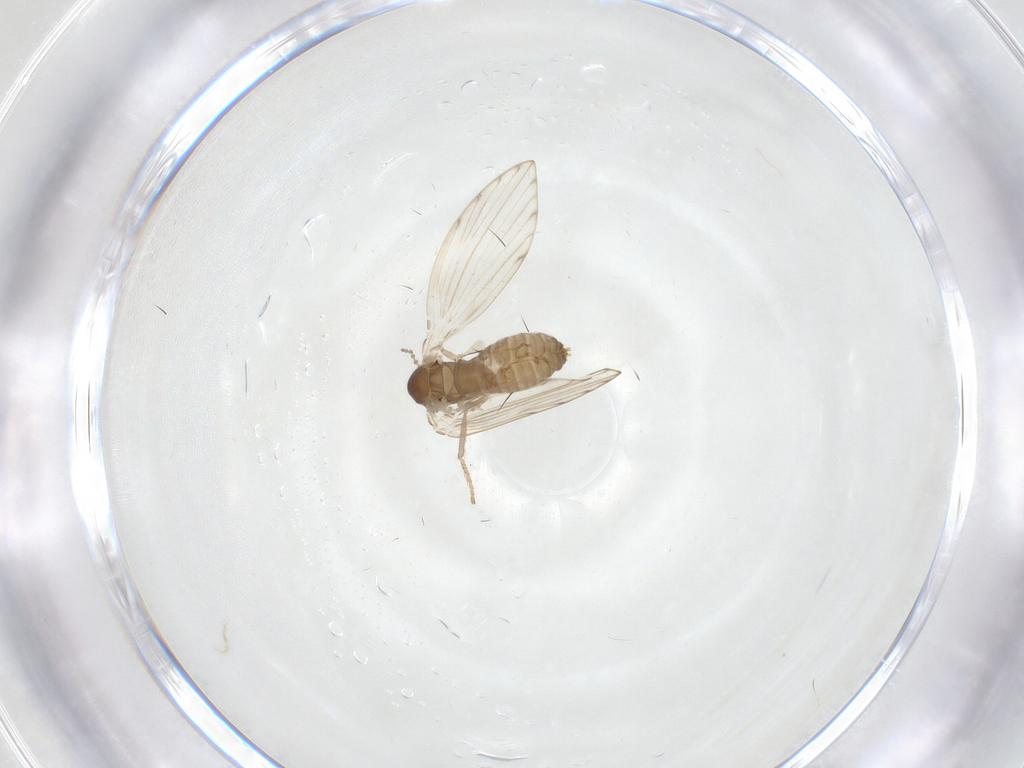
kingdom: Animalia
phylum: Arthropoda
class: Insecta
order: Diptera
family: Psychodidae
